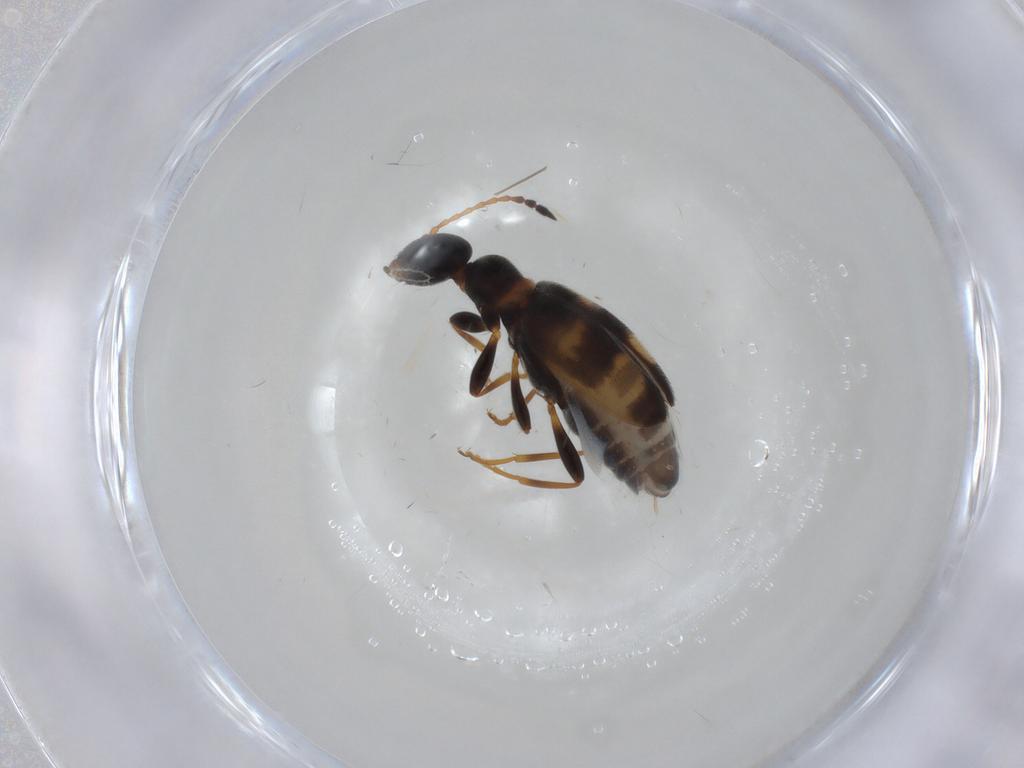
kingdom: Animalia
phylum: Arthropoda
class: Insecta
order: Coleoptera
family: Anthicidae
